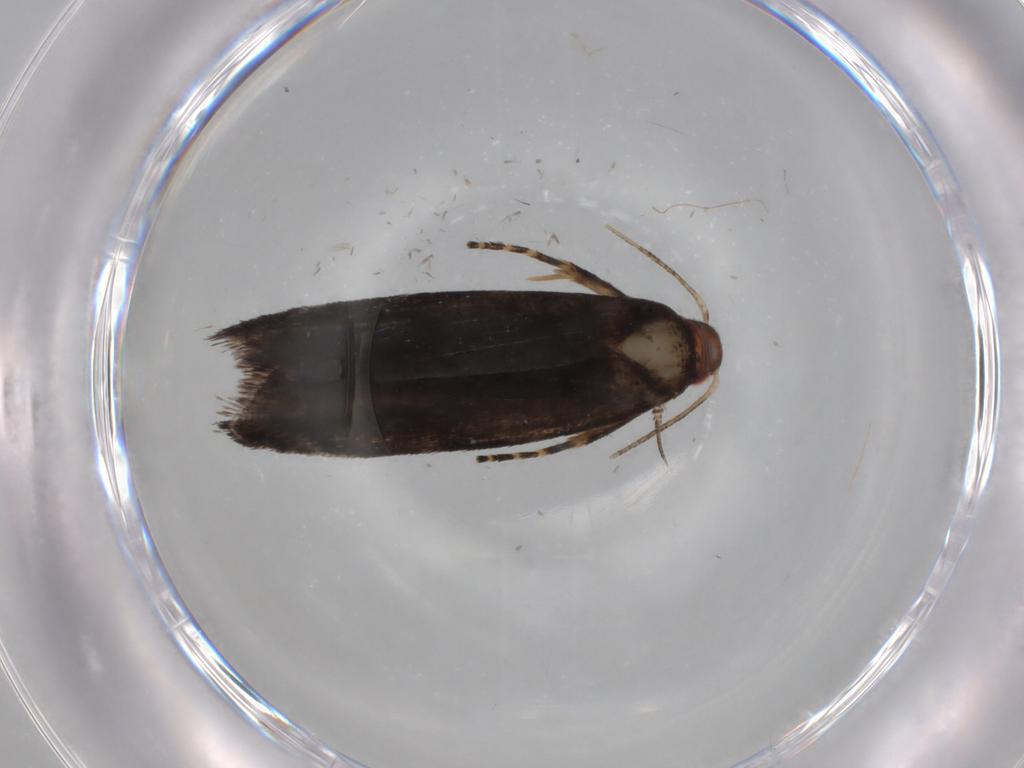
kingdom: Animalia
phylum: Arthropoda
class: Insecta
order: Lepidoptera
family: Gelechiidae
